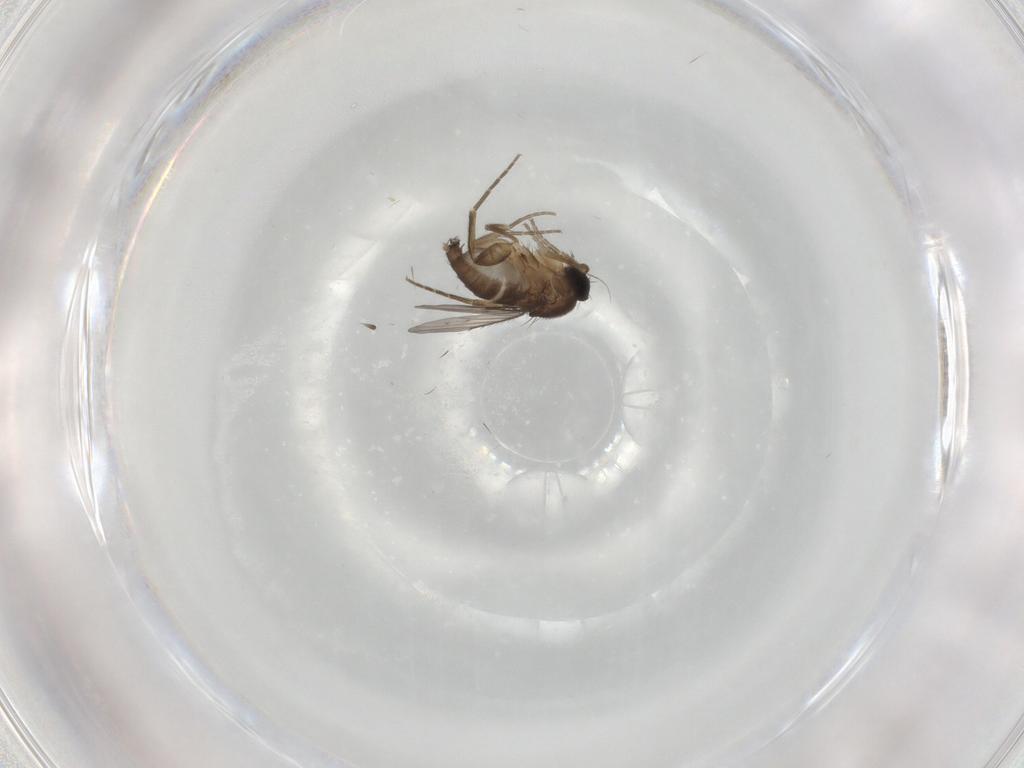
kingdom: Animalia
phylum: Arthropoda
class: Insecta
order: Diptera
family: Phoridae
